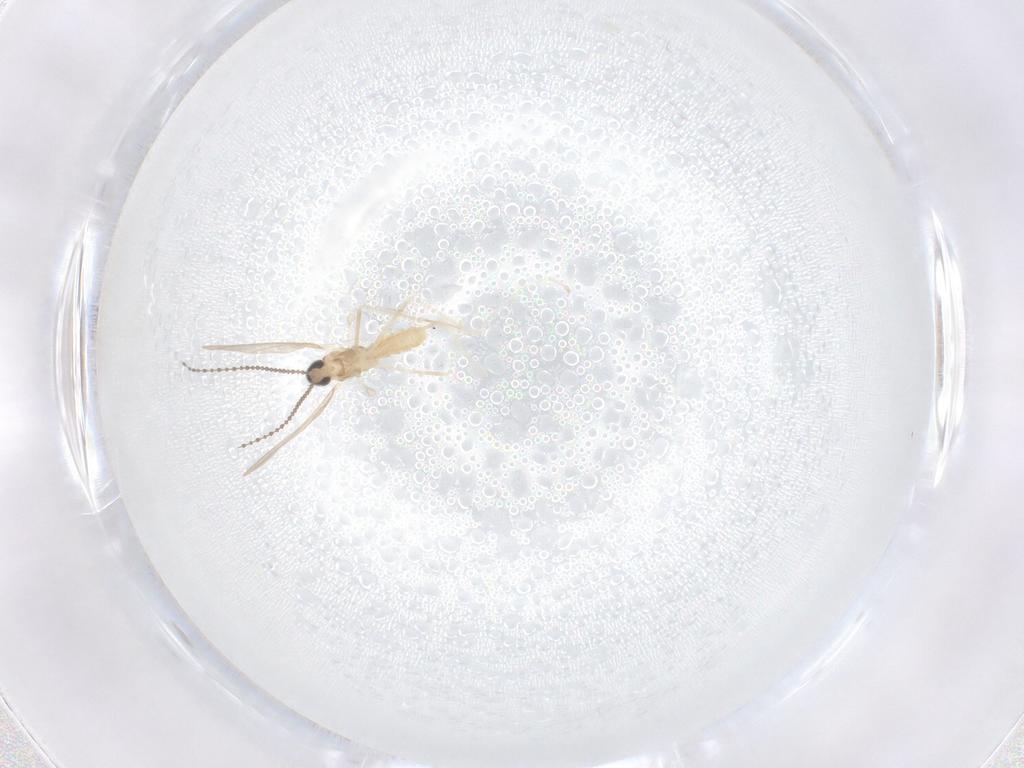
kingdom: Animalia
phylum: Arthropoda
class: Insecta
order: Diptera
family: Cecidomyiidae
